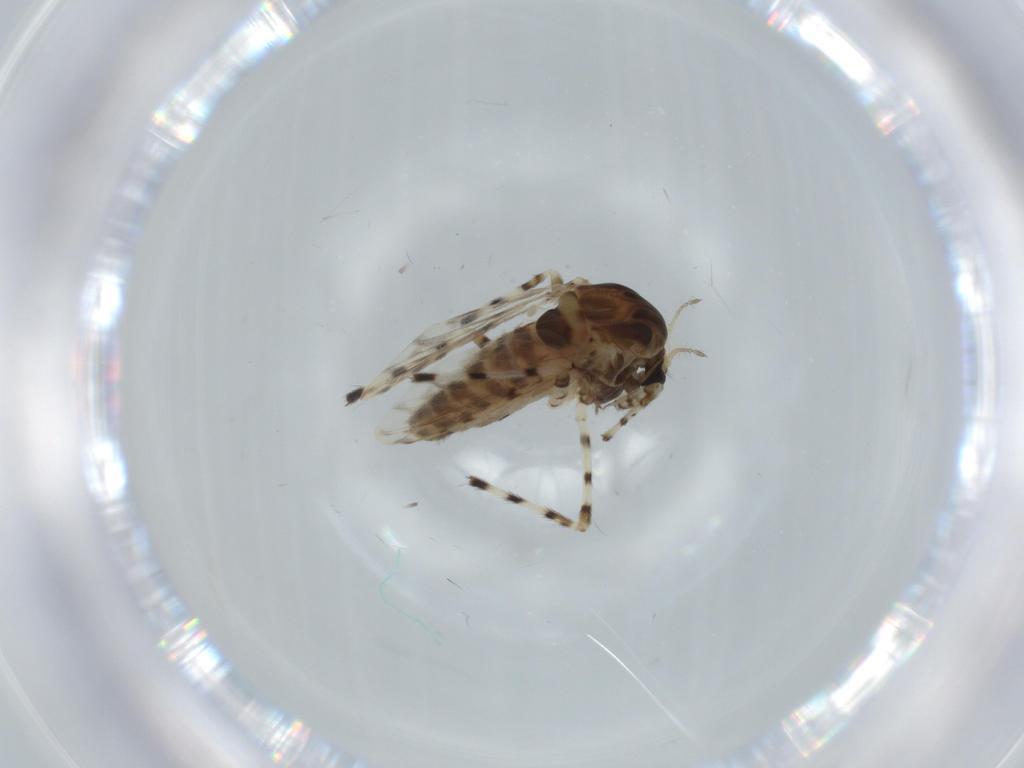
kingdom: Animalia
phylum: Arthropoda
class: Insecta
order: Diptera
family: Chironomidae
